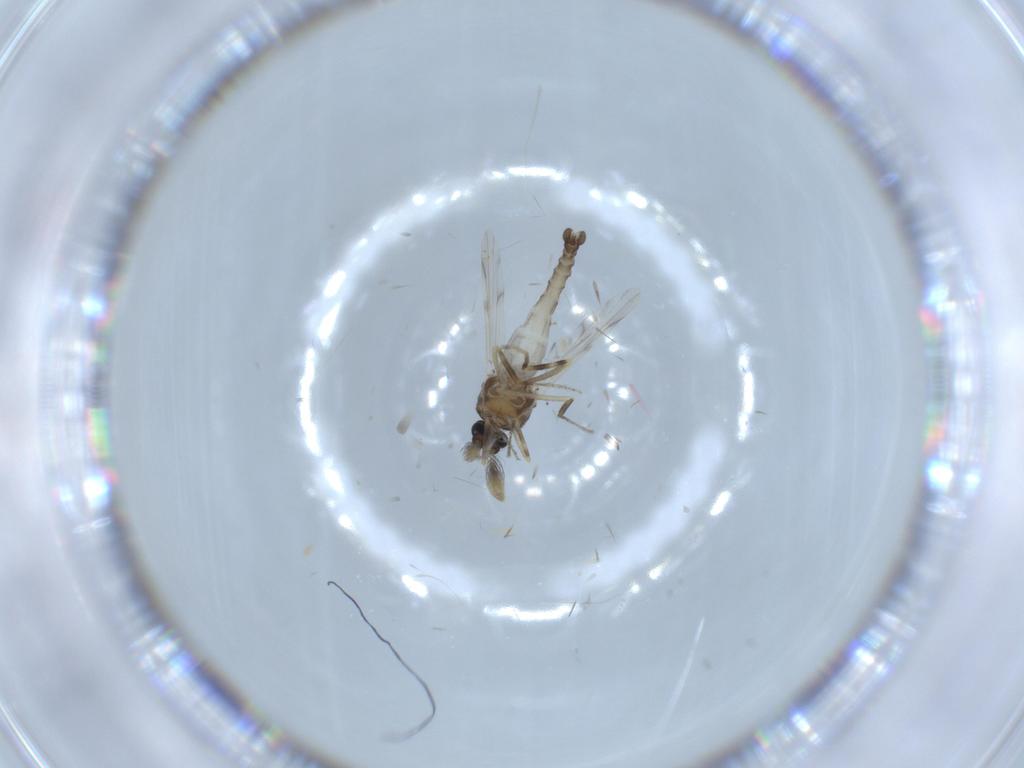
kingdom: Animalia
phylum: Arthropoda
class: Insecta
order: Diptera
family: Ceratopogonidae
